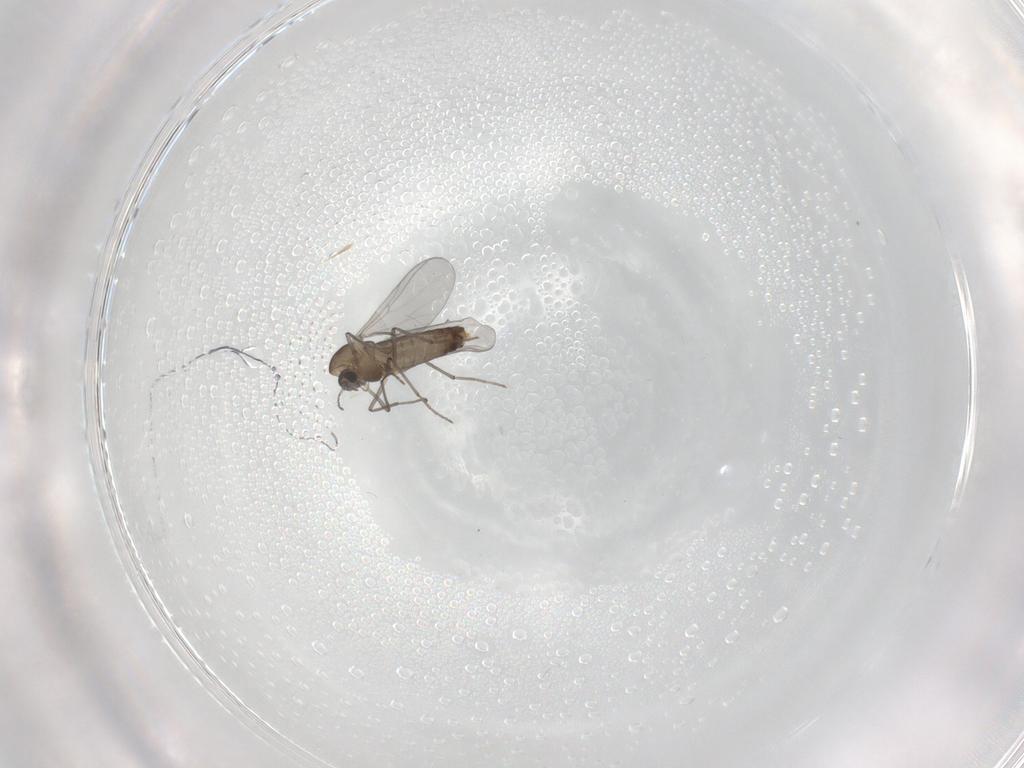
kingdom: Animalia
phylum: Arthropoda
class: Insecta
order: Diptera
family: Chironomidae
